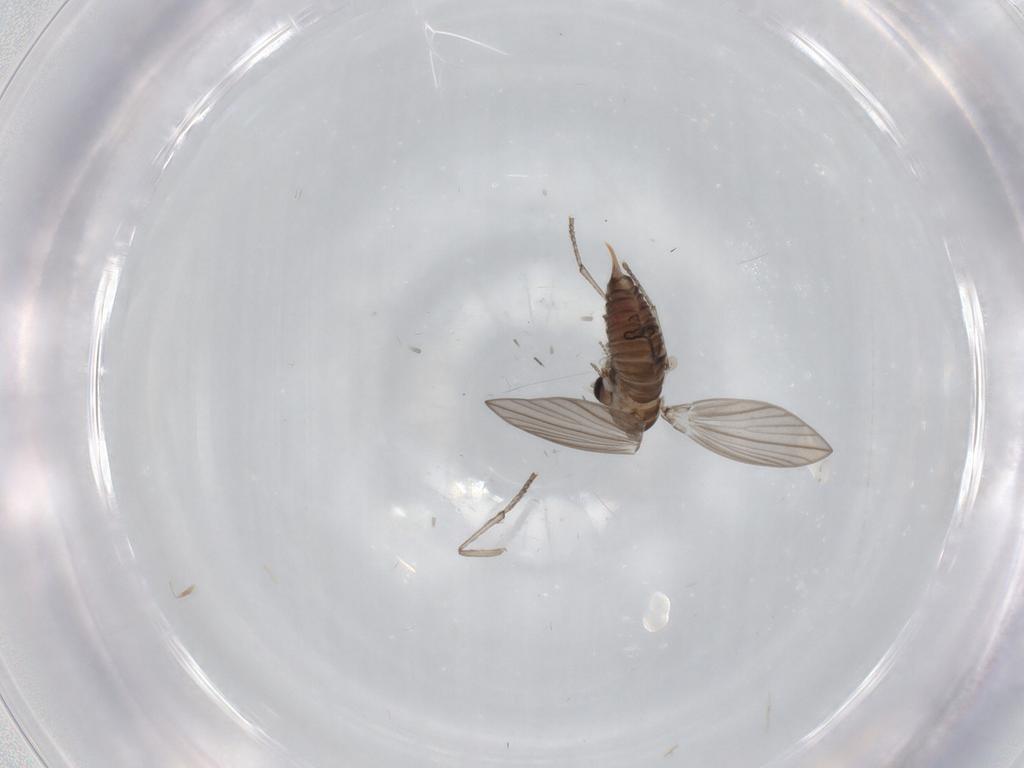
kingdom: Animalia
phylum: Arthropoda
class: Insecta
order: Diptera
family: Psychodidae
